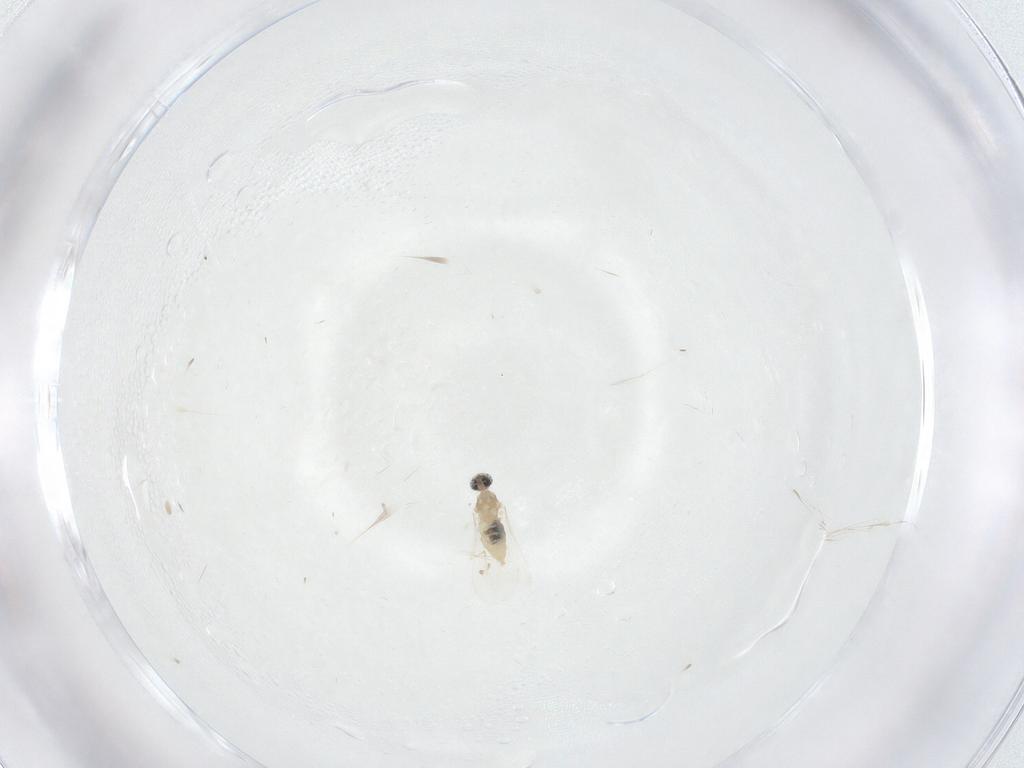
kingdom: Animalia
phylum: Arthropoda
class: Insecta
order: Diptera
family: Cecidomyiidae
